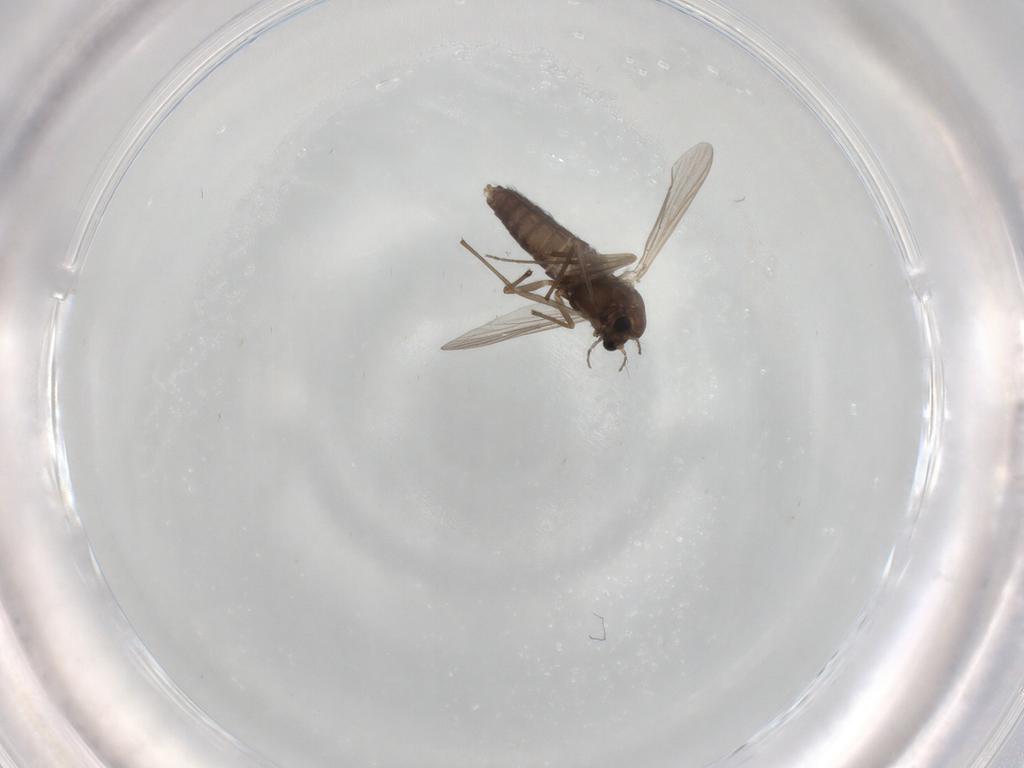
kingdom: Animalia
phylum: Arthropoda
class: Insecta
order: Diptera
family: Chironomidae
